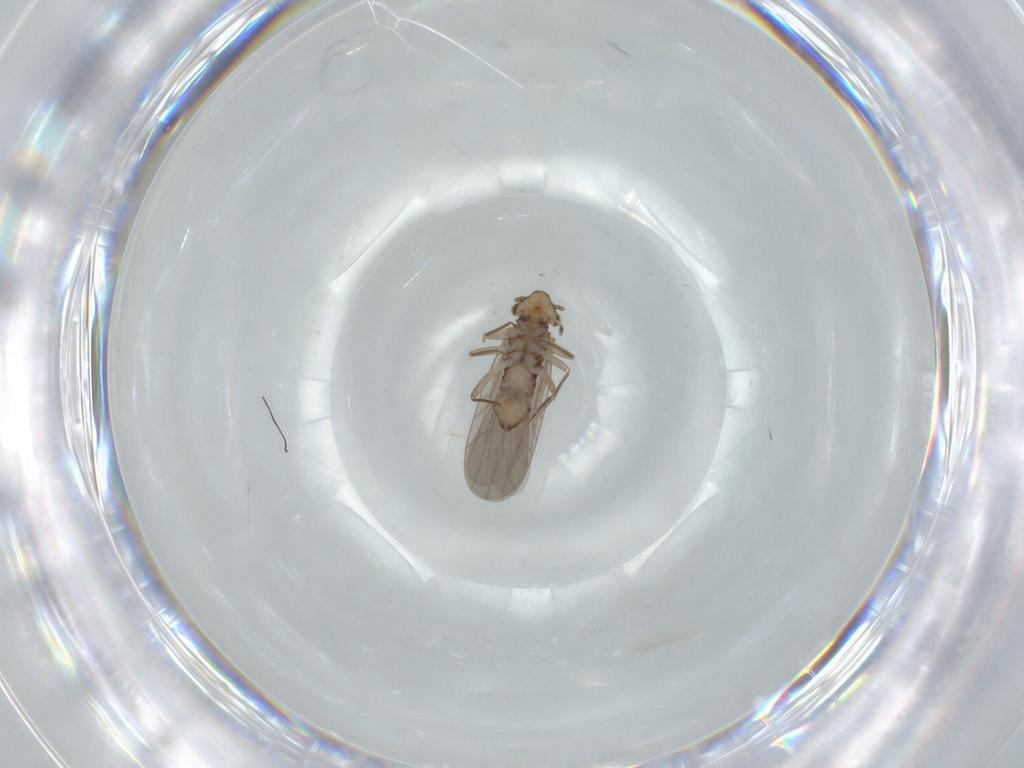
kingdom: Animalia
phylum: Arthropoda
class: Insecta
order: Psocodea
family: Lepidopsocidae
